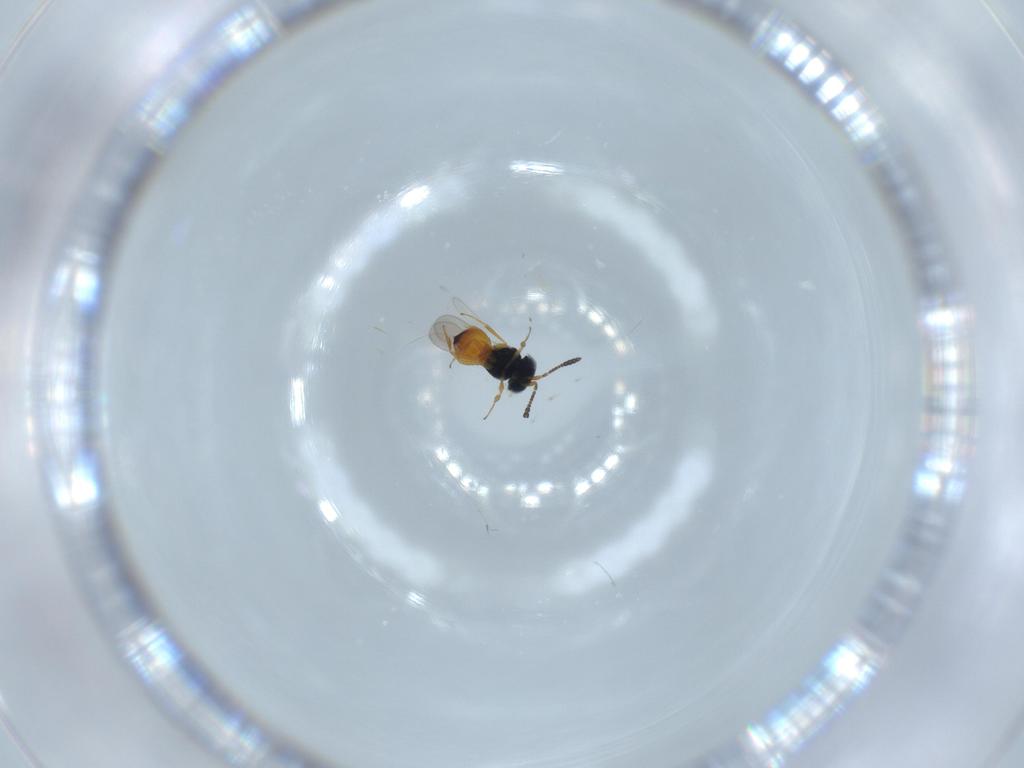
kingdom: Animalia
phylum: Arthropoda
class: Insecta
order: Hymenoptera
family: Scelionidae
